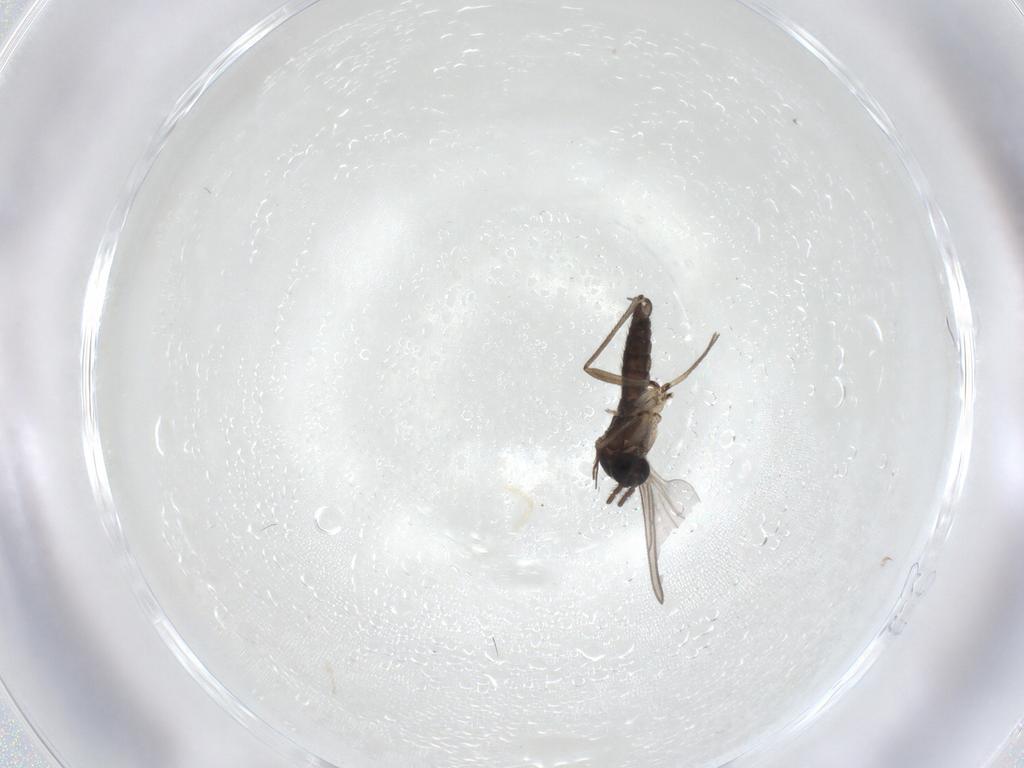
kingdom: Animalia
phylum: Arthropoda
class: Insecta
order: Diptera
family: Sciaridae
